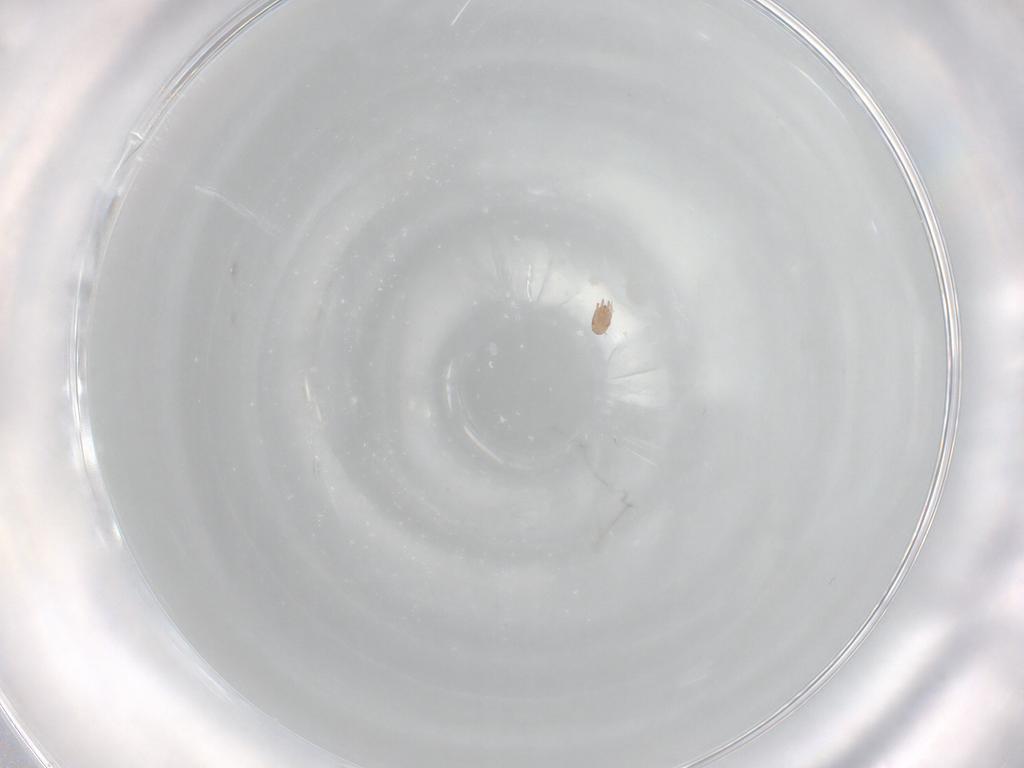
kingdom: Animalia
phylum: Arthropoda
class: Arachnida
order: Sarcoptiformes
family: Hemisarcoptidae
